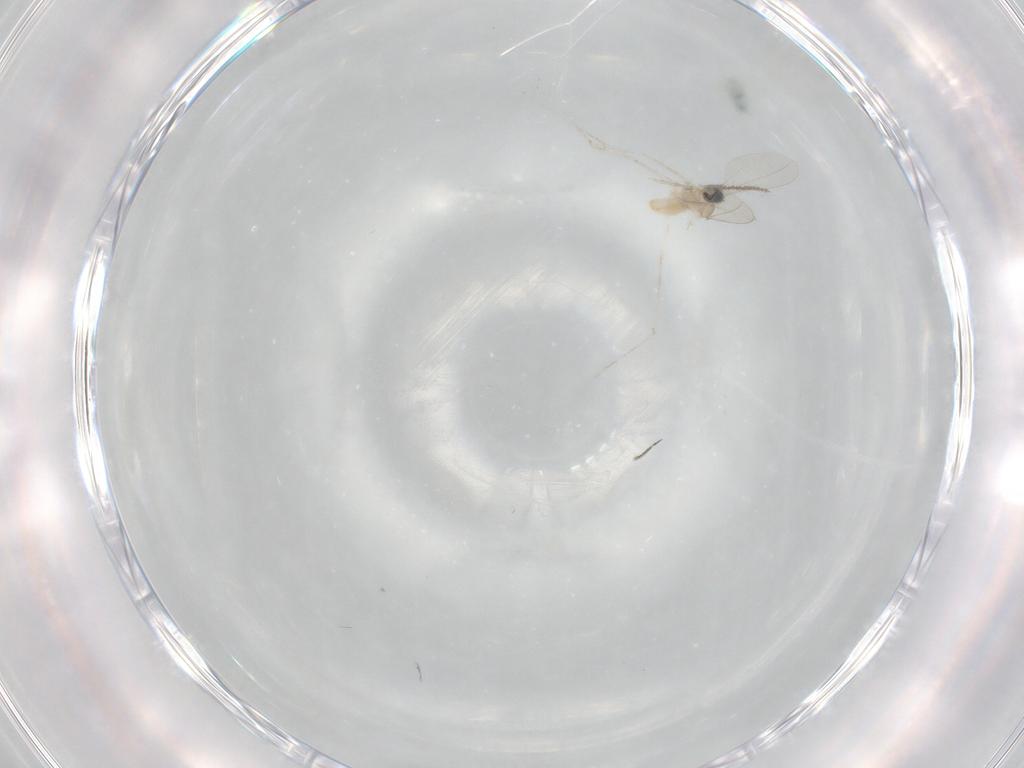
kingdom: Animalia
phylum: Arthropoda
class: Insecta
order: Diptera
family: Cecidomyiidae
